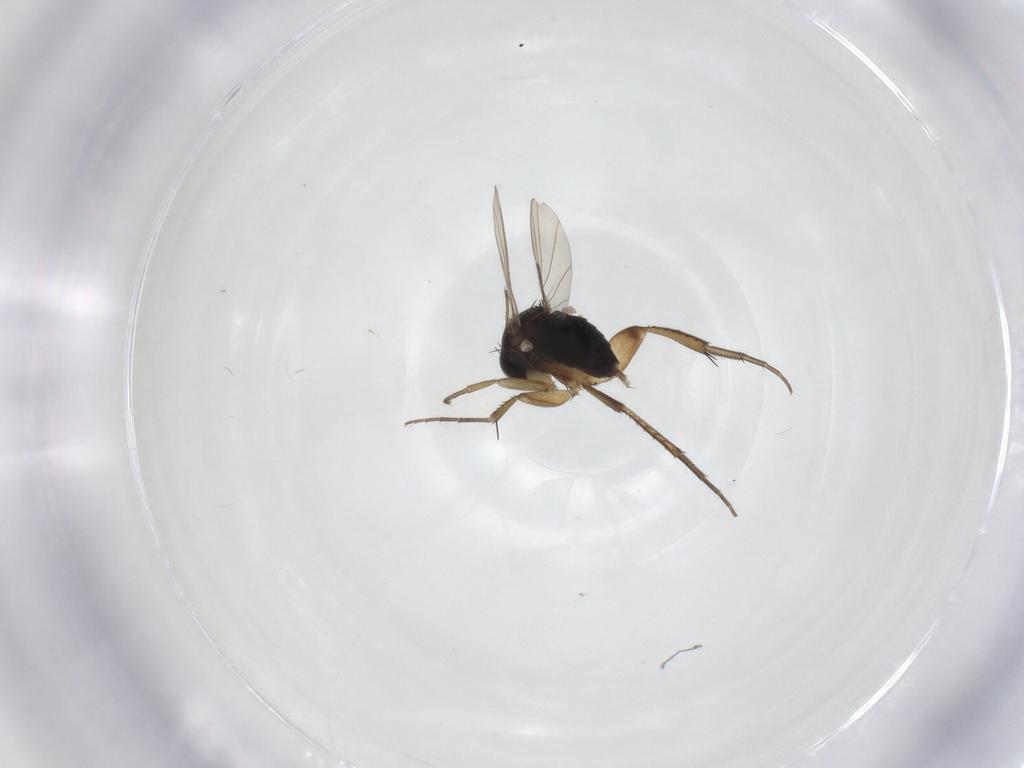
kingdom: Animalia
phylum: Arthropoda
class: Insecta
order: Diptera
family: Phoridae
